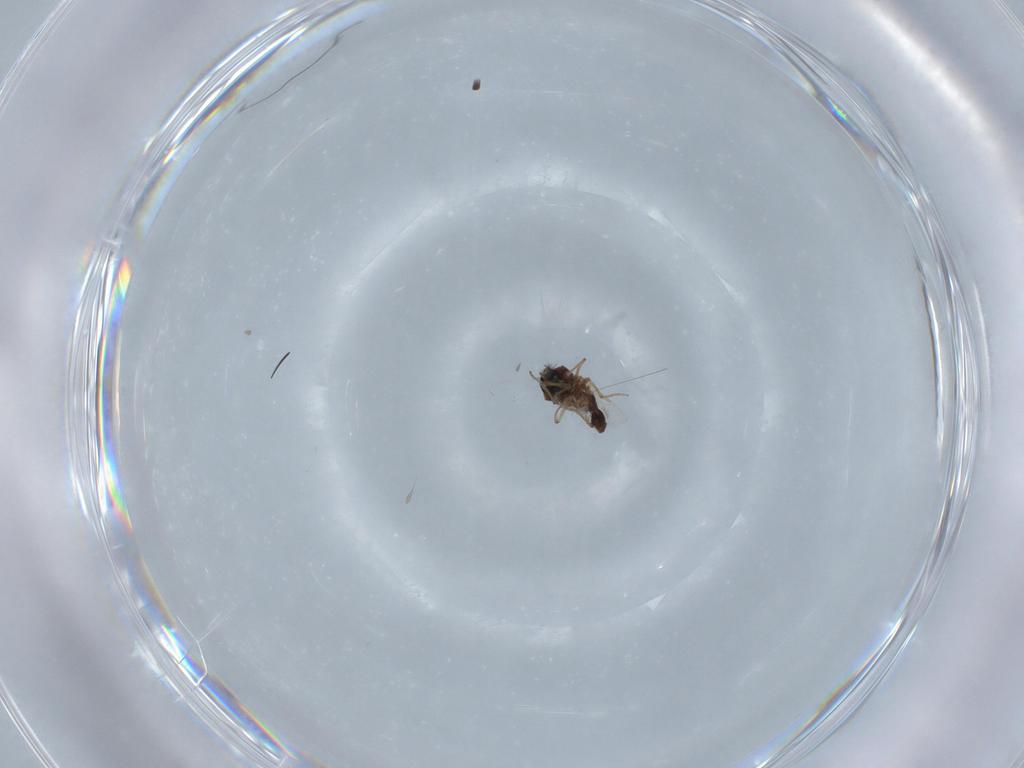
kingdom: Animalia
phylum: Arthropoda
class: Insecta
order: Diptera
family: Ceratopogonidae
